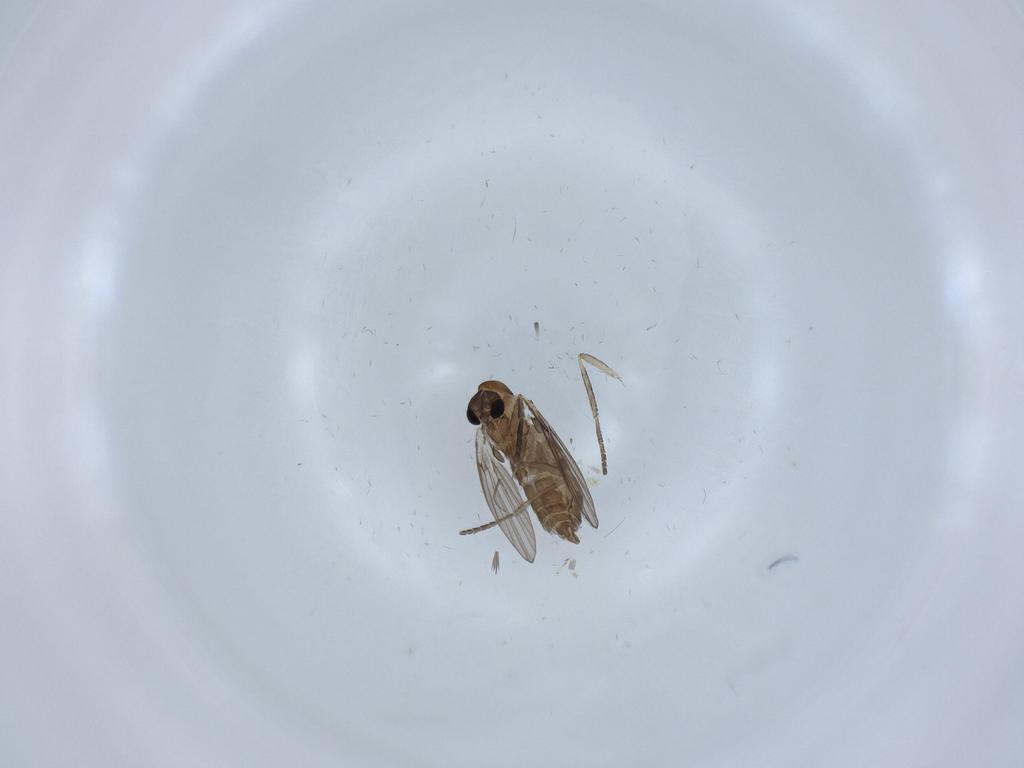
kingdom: Animalia
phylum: Arthropoda
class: Insecta
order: Diptera
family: Psychodidae
